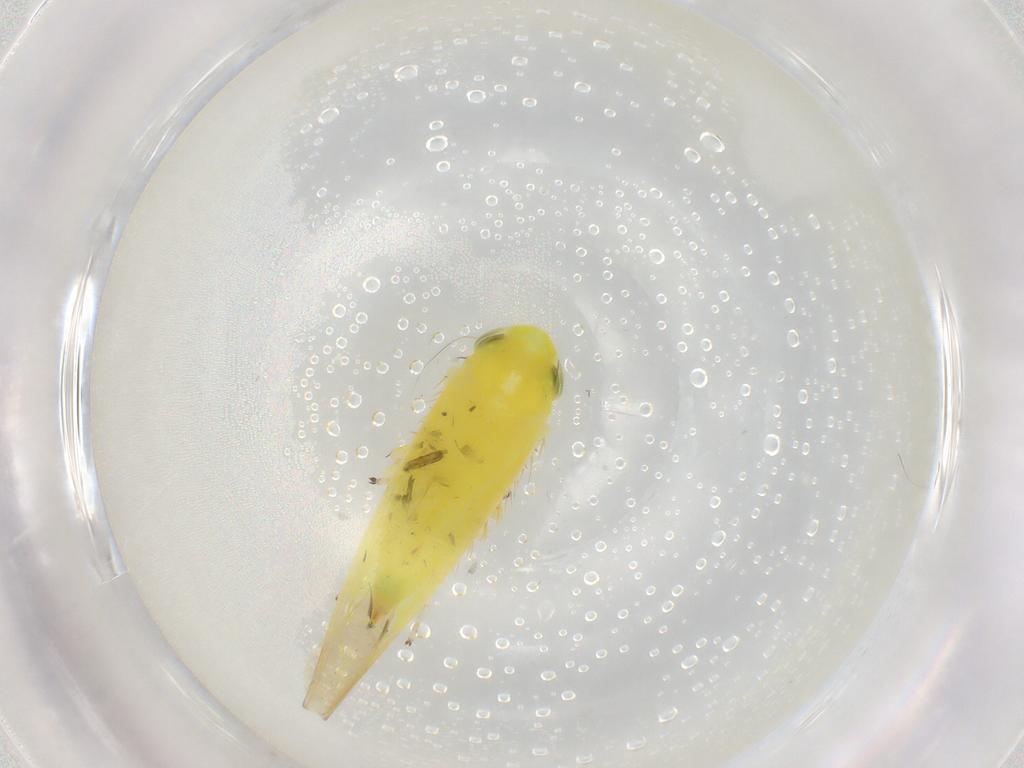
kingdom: Animalia
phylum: Arthropoda
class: Insecta
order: Hemiptera
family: Cicadellidae
